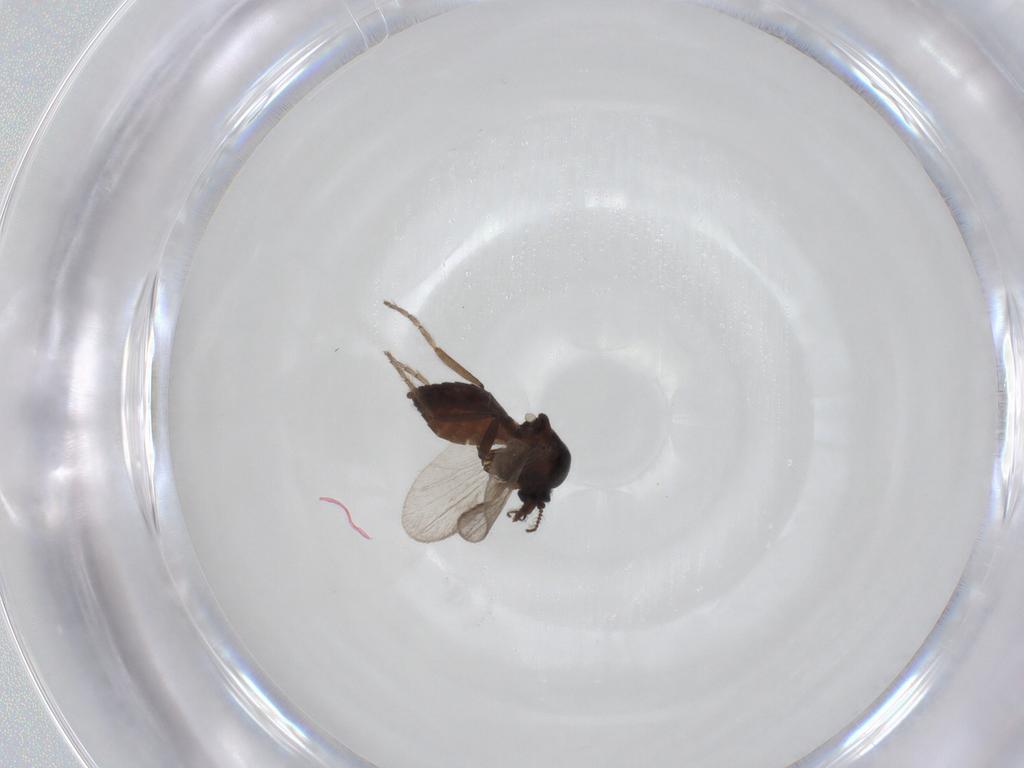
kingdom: Animalia
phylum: Arthropoda
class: Insecta
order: Diptera
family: Ceratopogonidae
